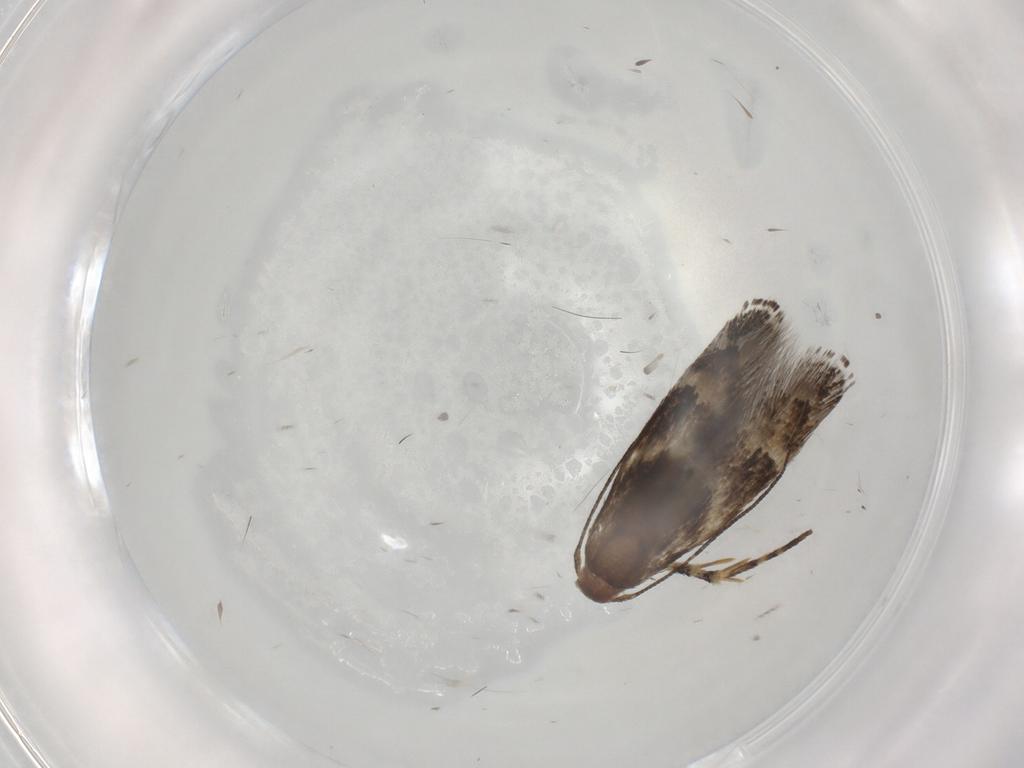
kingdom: Animalia
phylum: Arthropoda
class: Insecta
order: Lepidoptera
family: Momphidae
